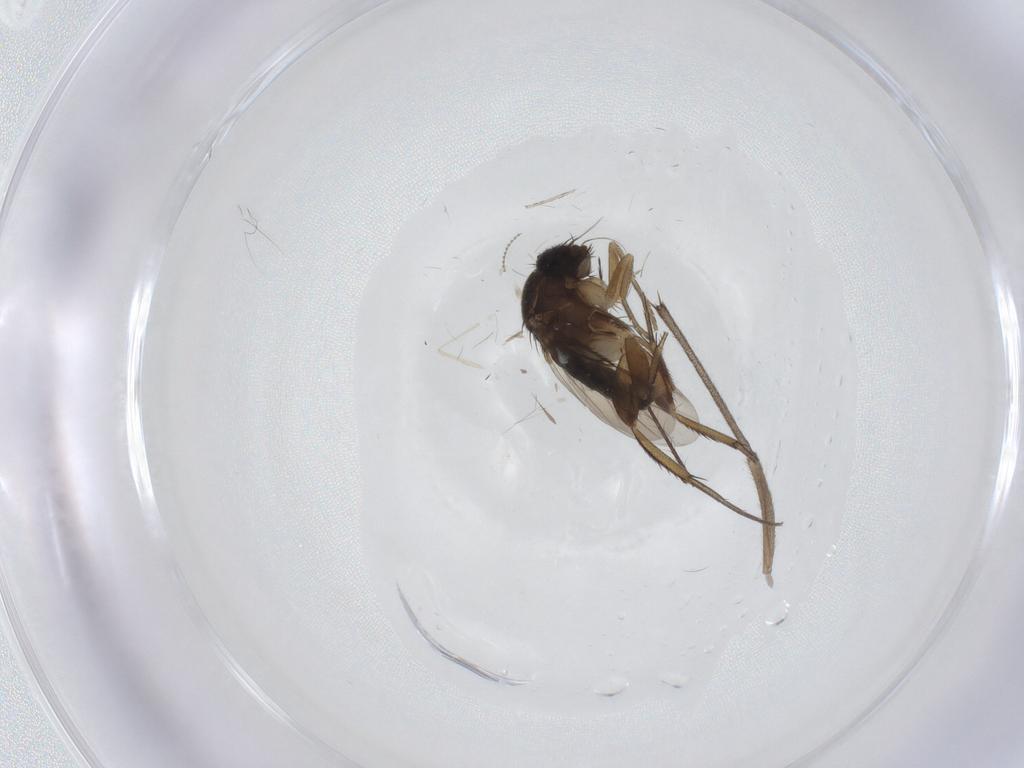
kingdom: Animalia
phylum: Arthropoda
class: Insecta
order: Diptera
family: Phoridae
